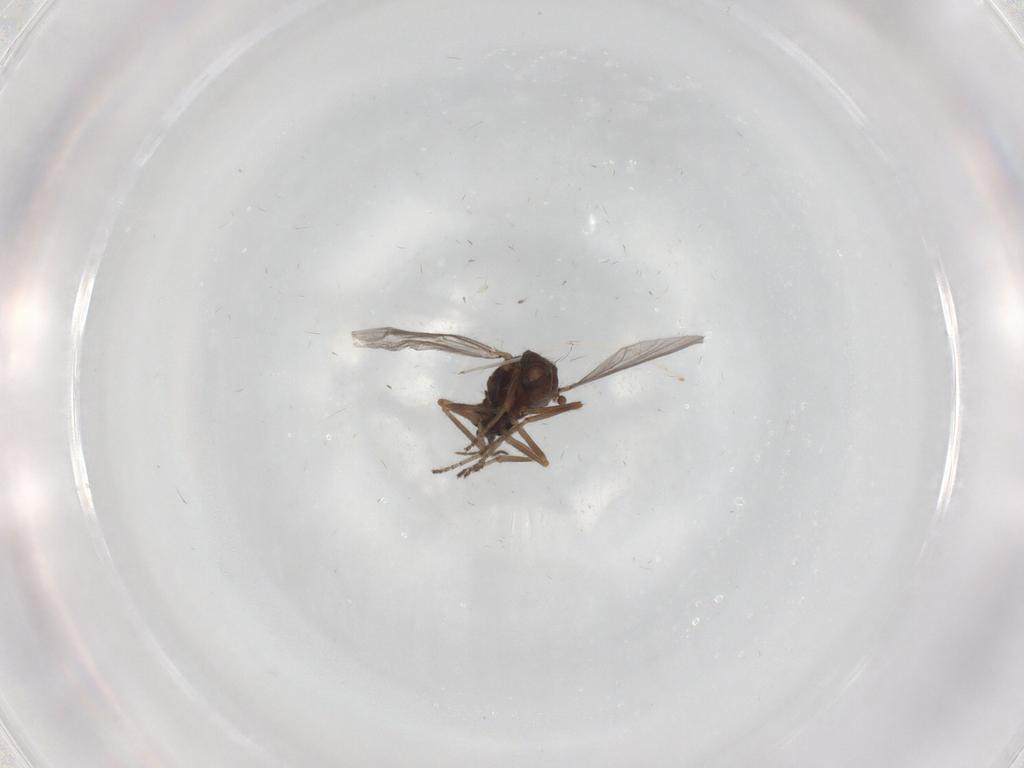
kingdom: Animalia
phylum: Arthropoda
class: Insecta
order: Diptera
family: Ceratopogonidae
